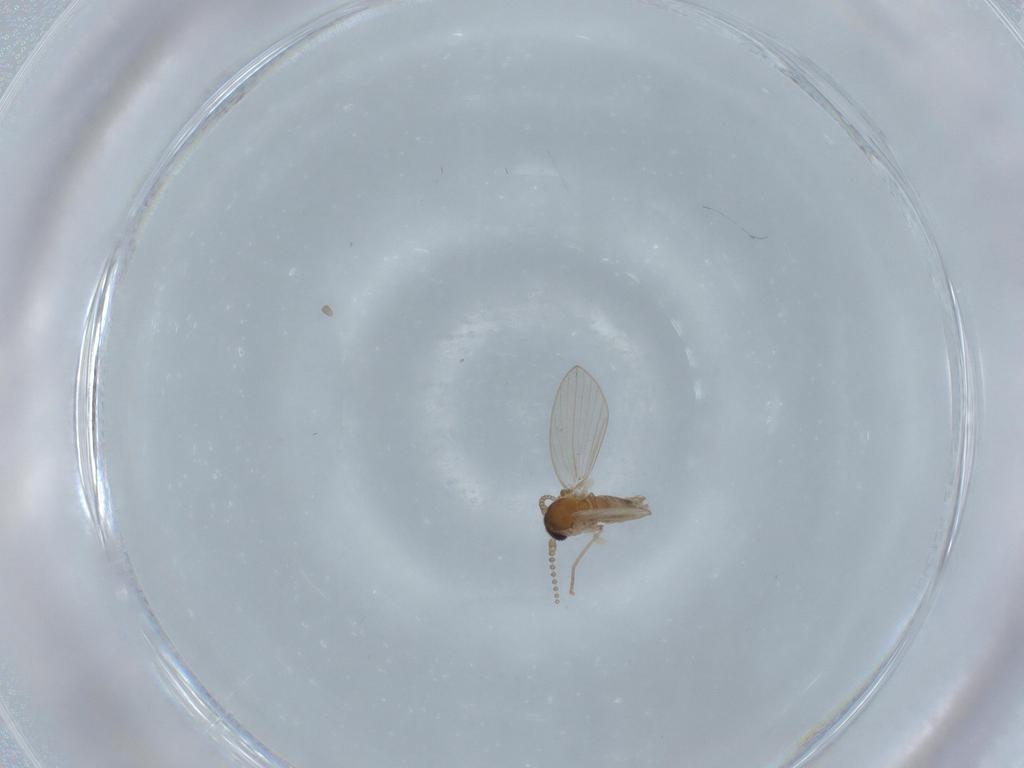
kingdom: Animalia
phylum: Arthropoda
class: Insecta
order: Diptera
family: Psychodidae
